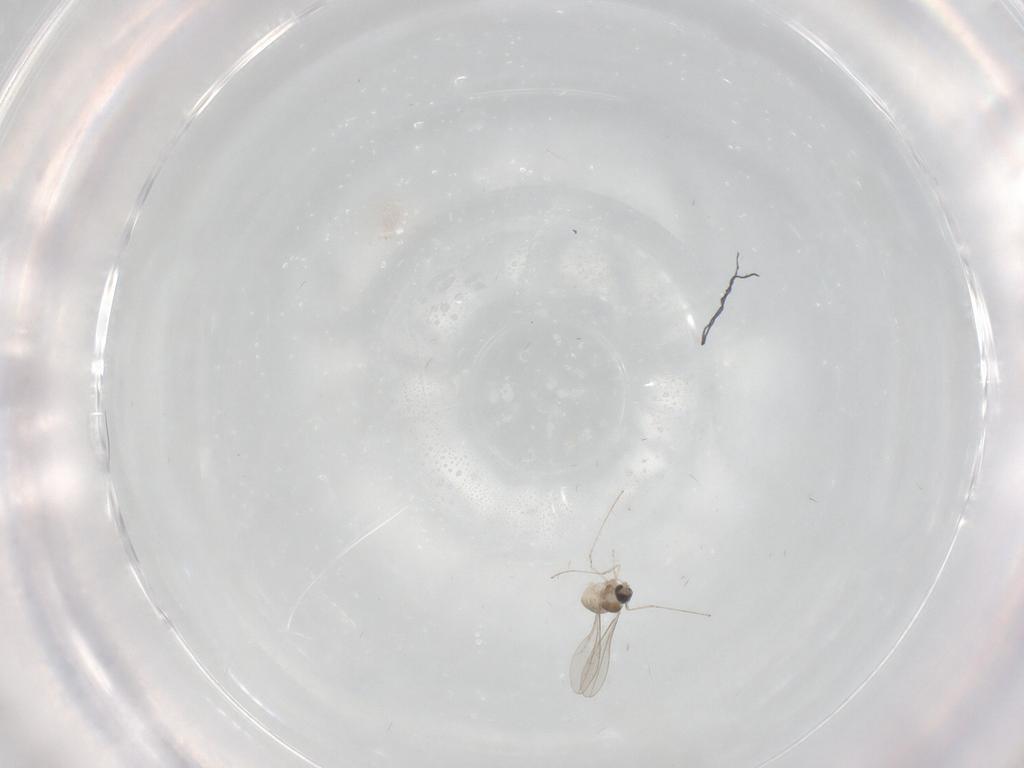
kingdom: Animalia
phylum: Arthropoda
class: Insecta
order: Diptera
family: Cecidomyiidae
